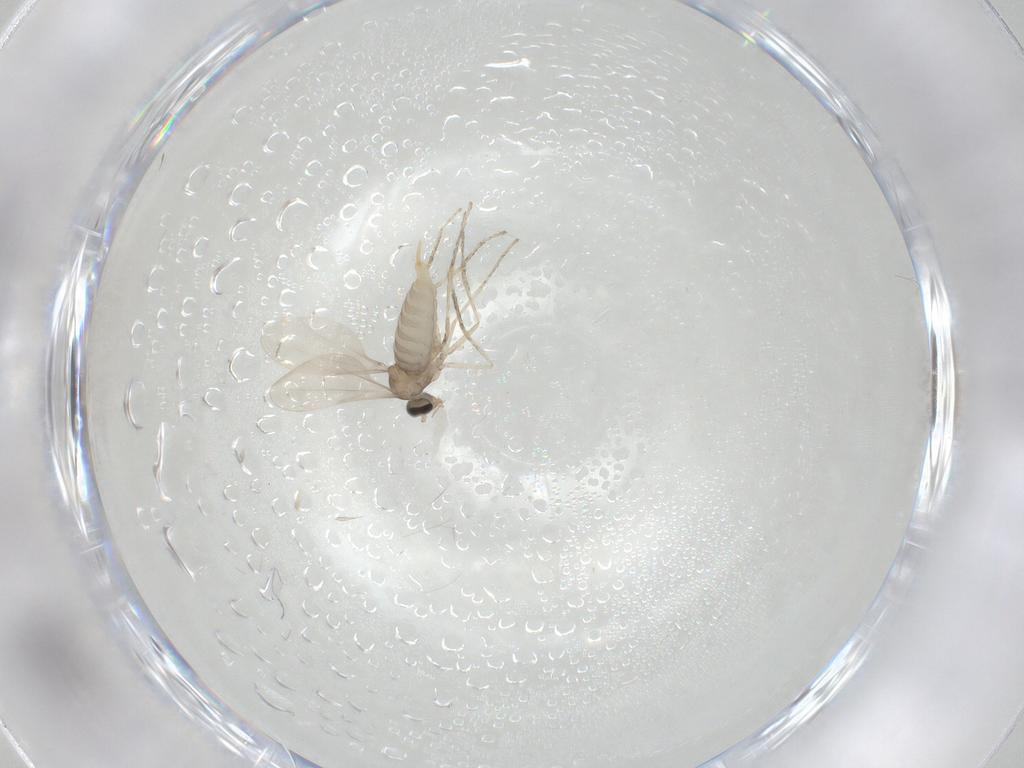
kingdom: Animalia
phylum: Arthropoda
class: Insecta
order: Diptera
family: Cecidomyiidae
